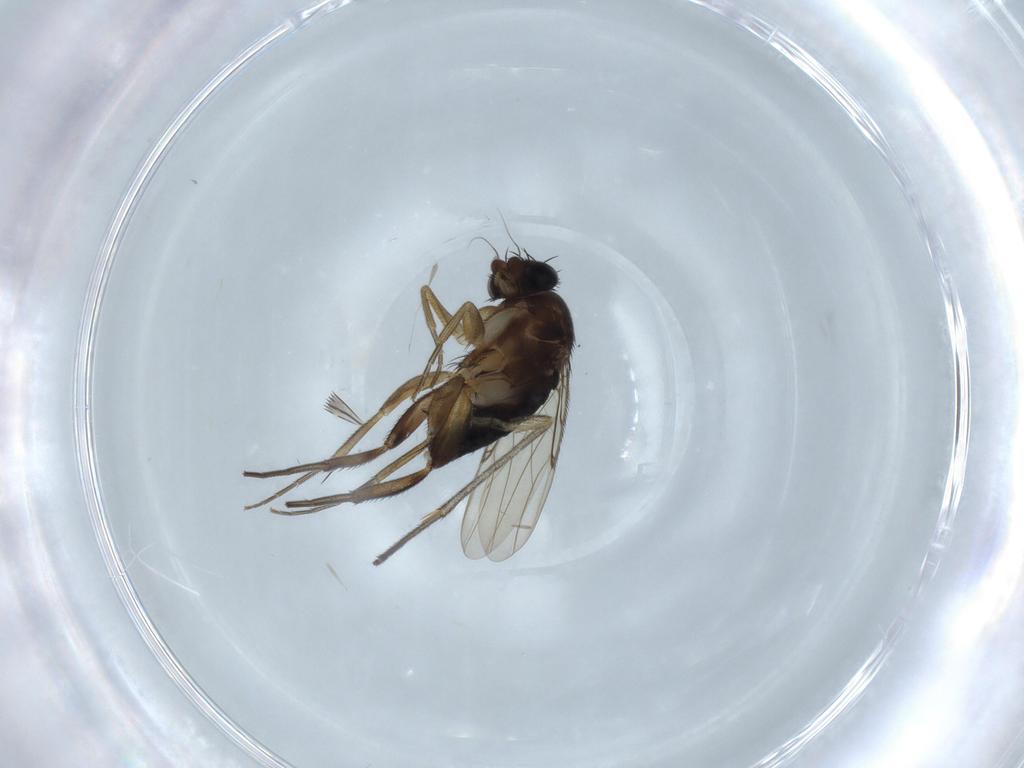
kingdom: Animalia
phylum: Arthropoda
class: Insecta
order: Diptera
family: Phoridae
